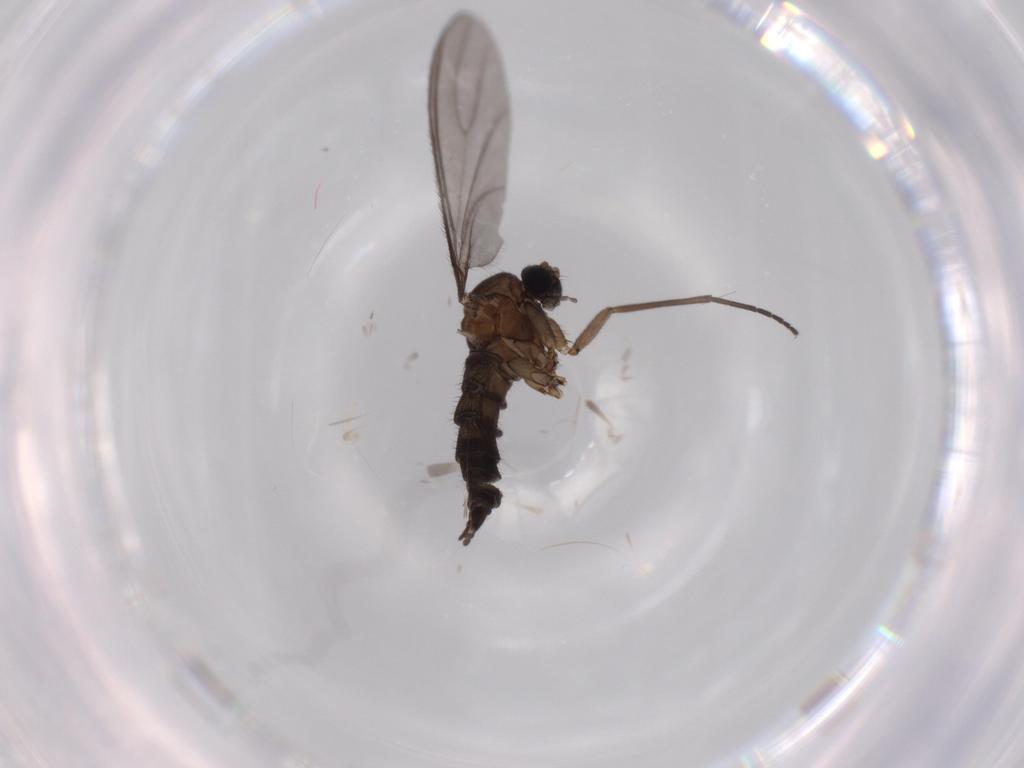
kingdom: Animalia
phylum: Arthropoda
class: Insecta
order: Diptera
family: Sciaridae
